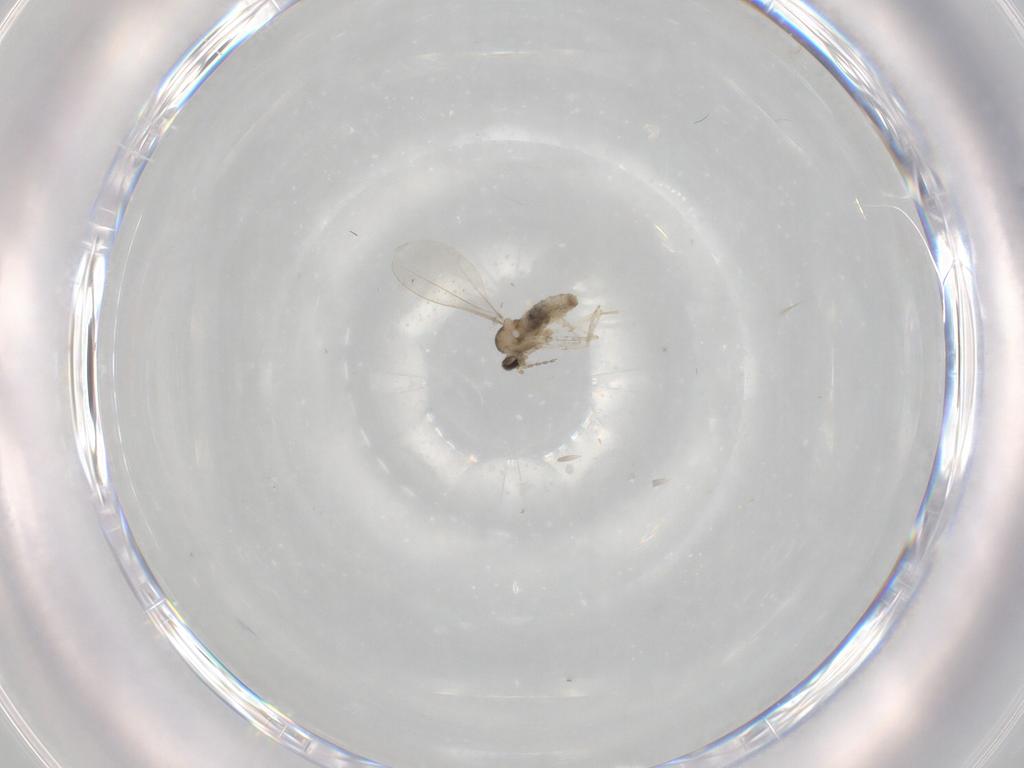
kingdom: Animalia
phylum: Arthropoda
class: Insecta
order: Diptera
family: Cecidomyiidae
